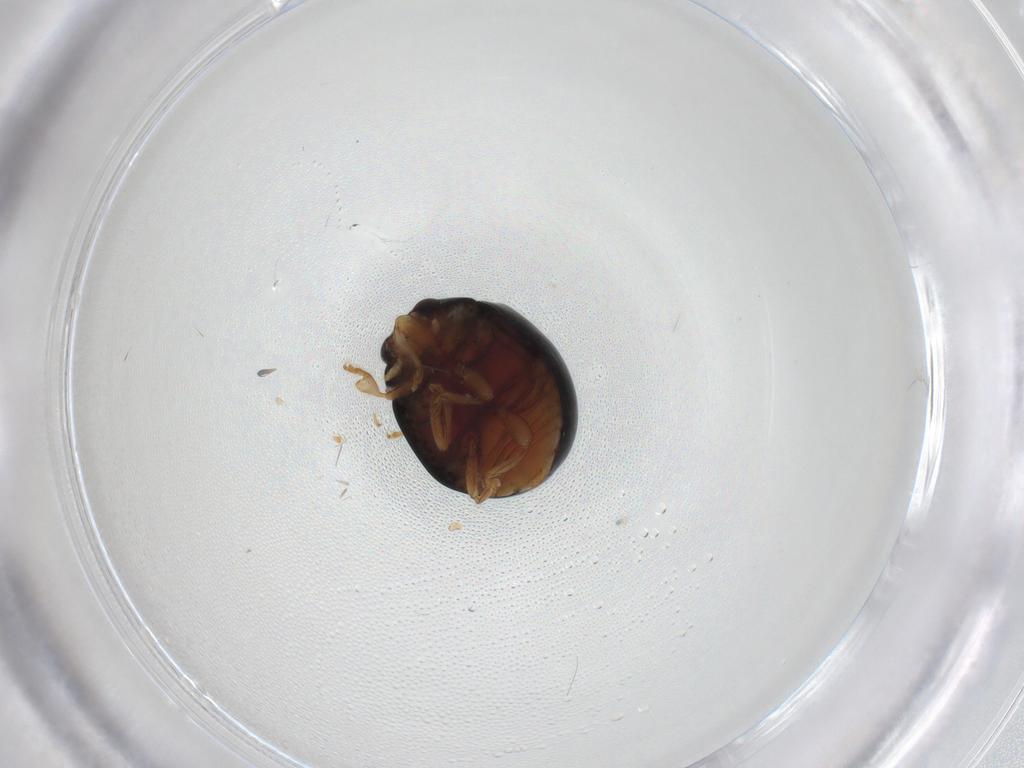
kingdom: Animalia
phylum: Arthropoda
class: Insecta
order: Coleoptera
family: Coccinellidae
